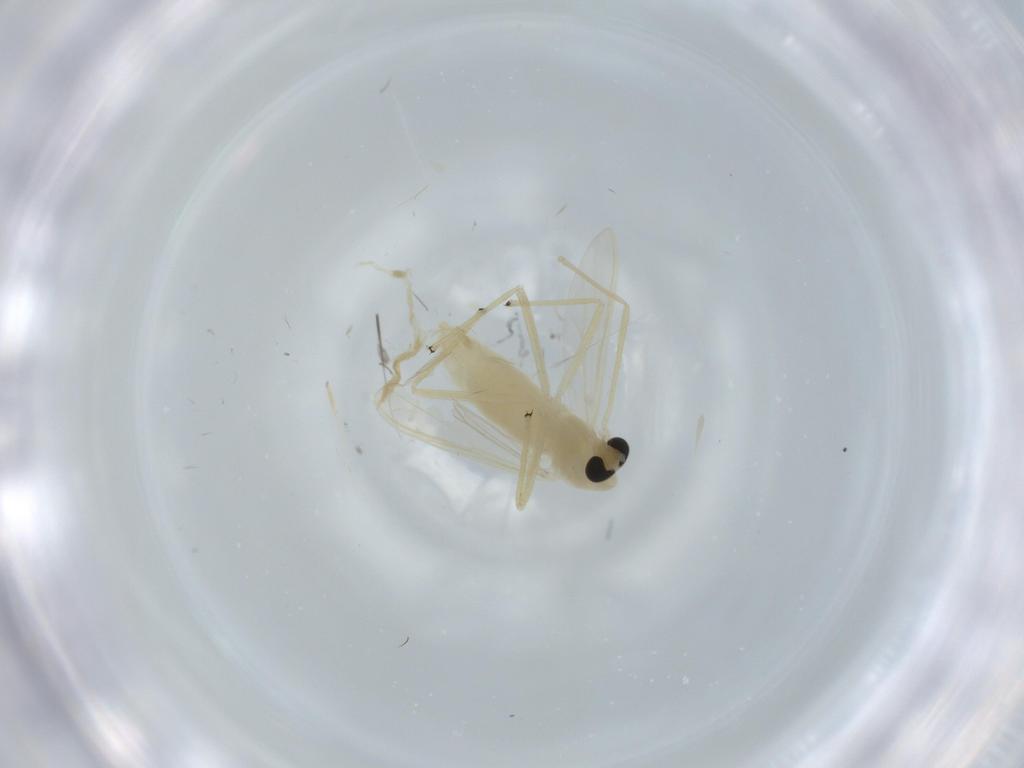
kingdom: Animalia
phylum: Arthropoda
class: Insecta
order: Diptera
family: Chironomidae
